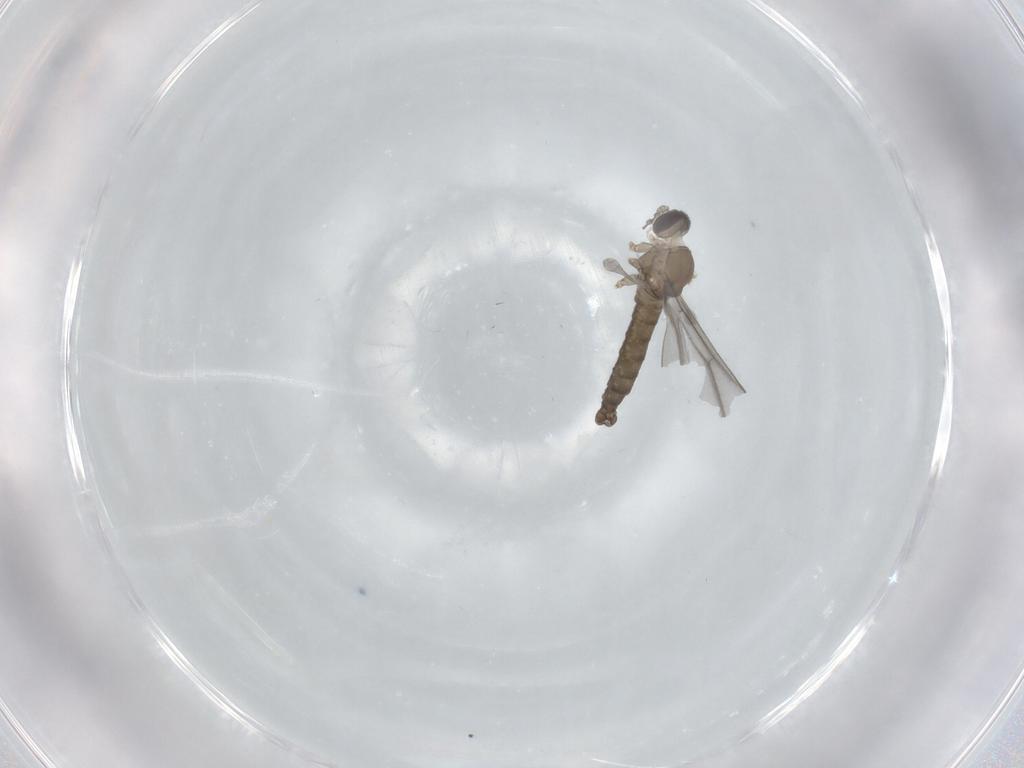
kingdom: Animalia
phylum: Arthropoda
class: Insecta
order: Diptera
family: Cecidomyiidae
